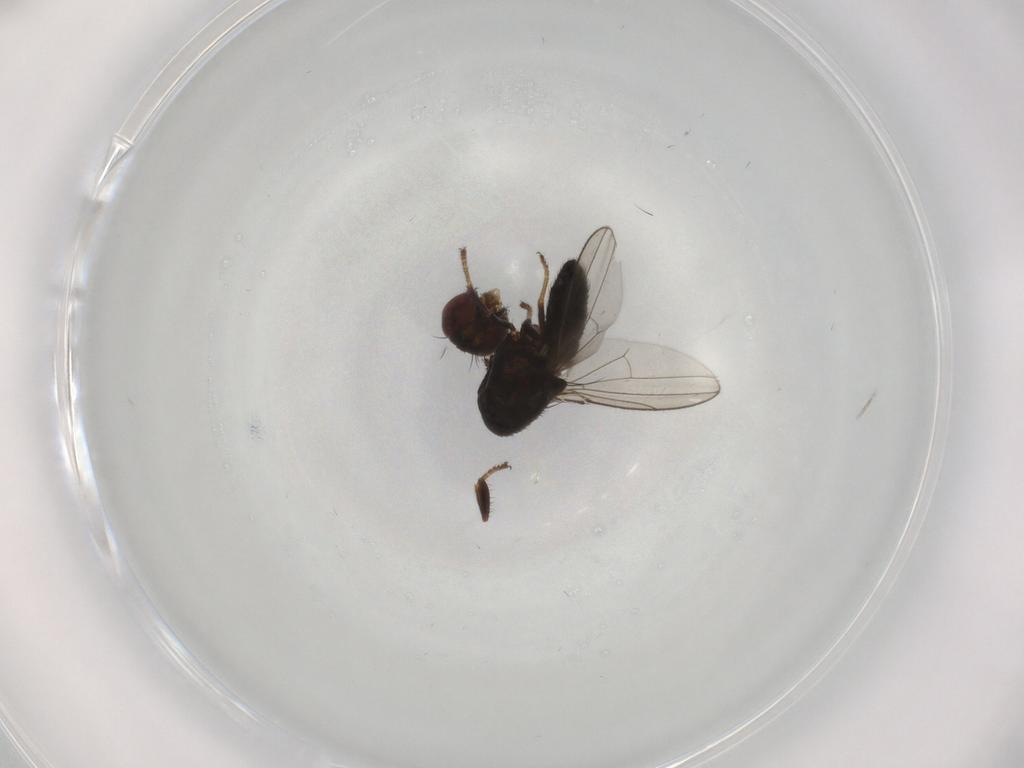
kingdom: Animalia
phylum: Arthropoda
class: Insecta
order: Diptera
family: Ephydridae
